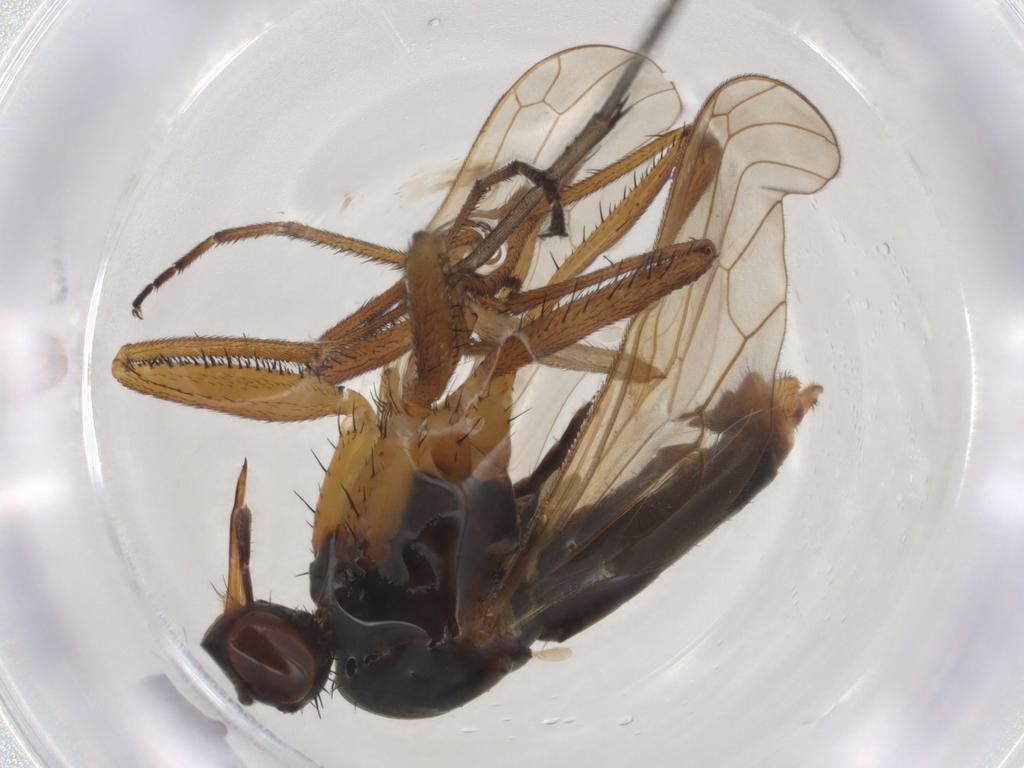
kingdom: Animalia
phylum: Arthropoda
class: Insecta
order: Diptera
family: Empididae
